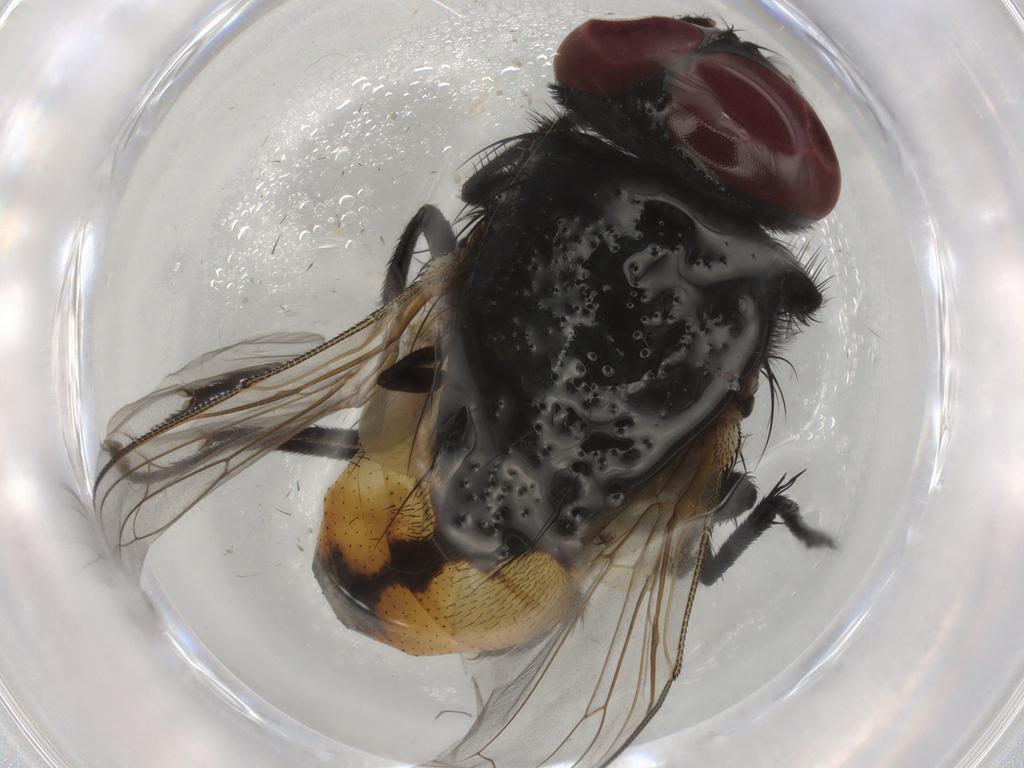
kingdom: Animalia
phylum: Arthropoda
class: Insecta
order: Diptera
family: Lonchaeidae
